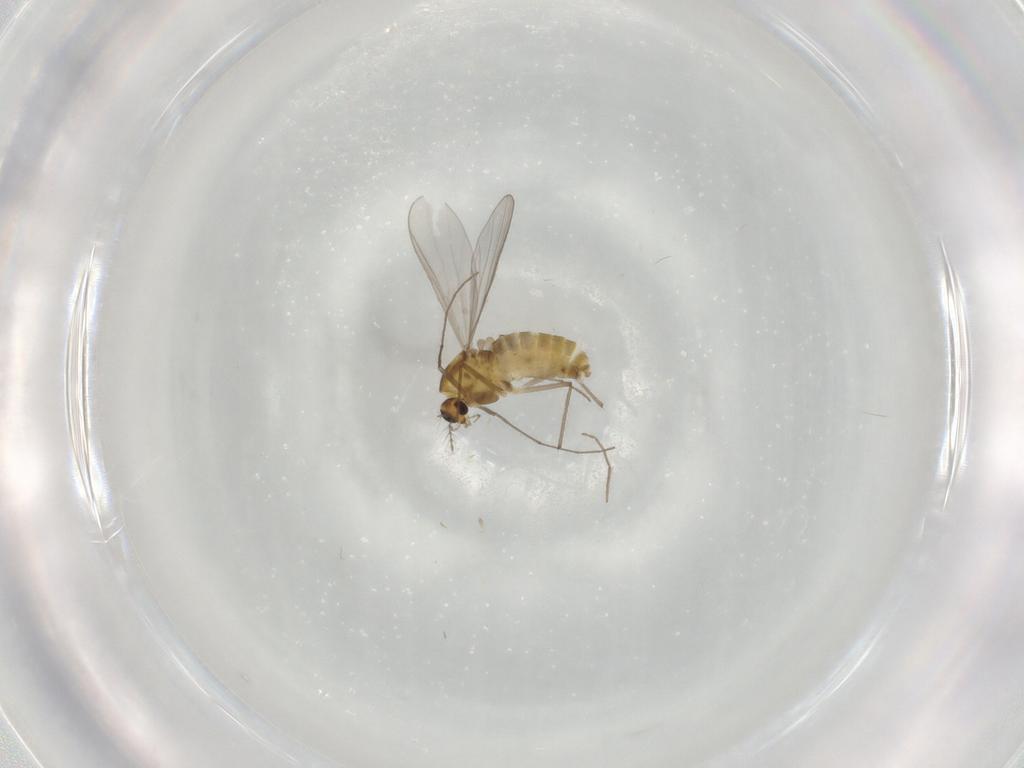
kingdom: Animalia
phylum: Arthropoda
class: Insecta
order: Diptera
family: Chironomidae
